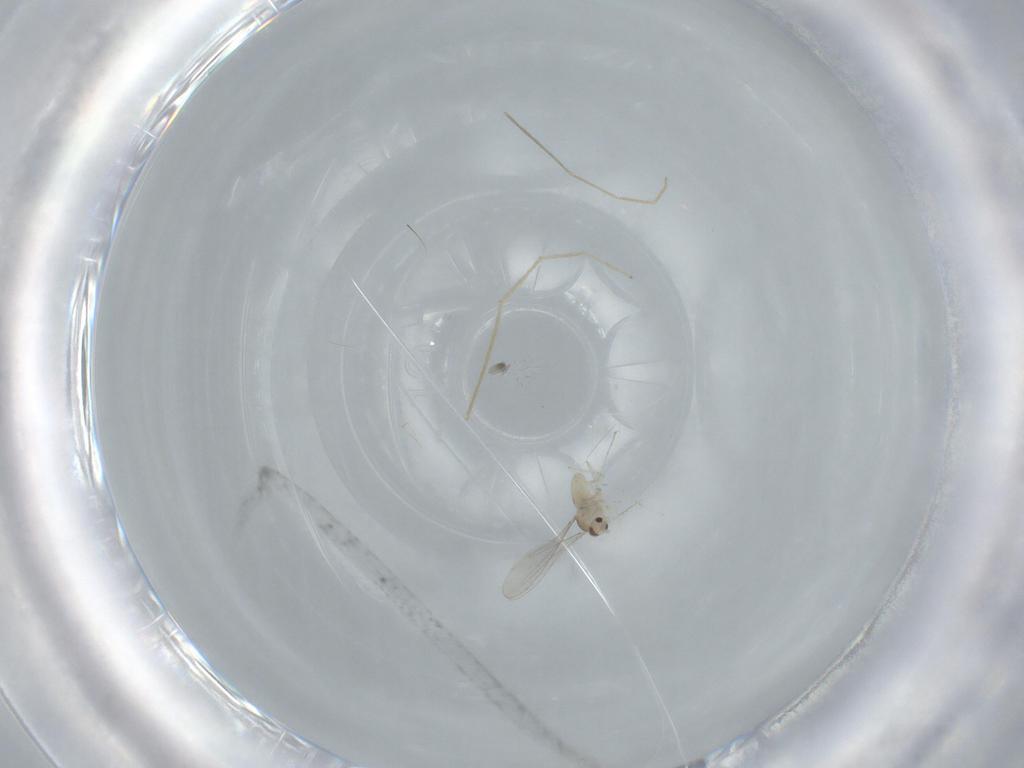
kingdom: Animalia
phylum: Arthropoda
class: Insecta
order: Diptera
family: Cecidomyiidae
